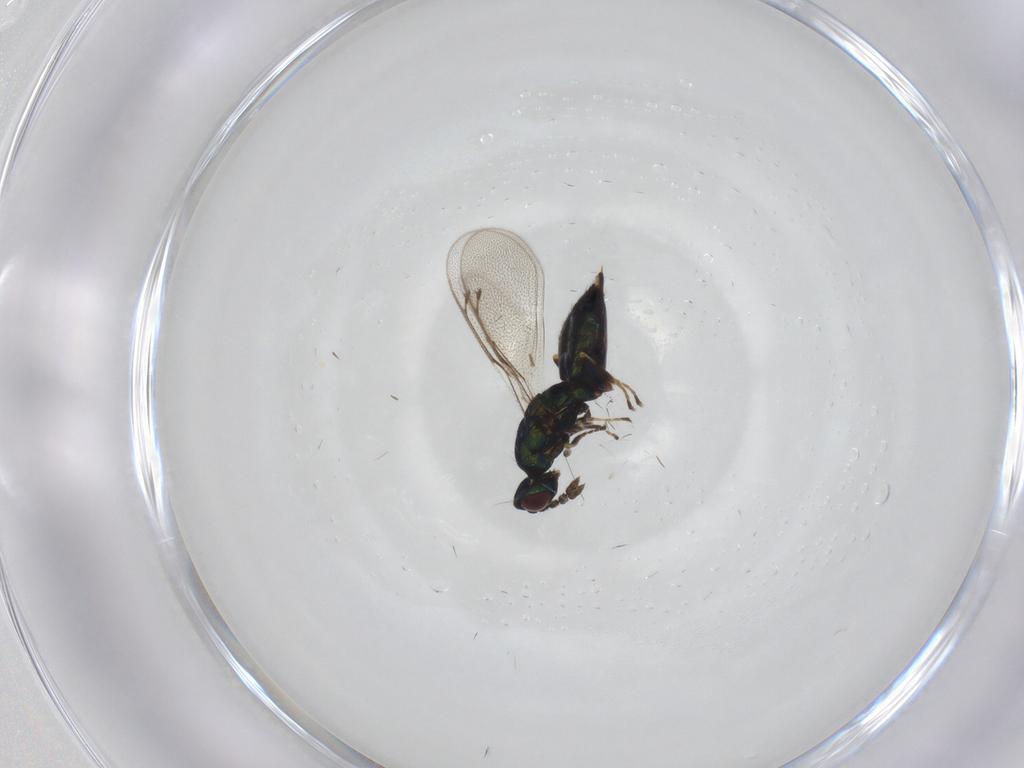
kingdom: Animalia
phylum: Arthropoda
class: Insecta
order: Hymenoptera
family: Eulophidae
